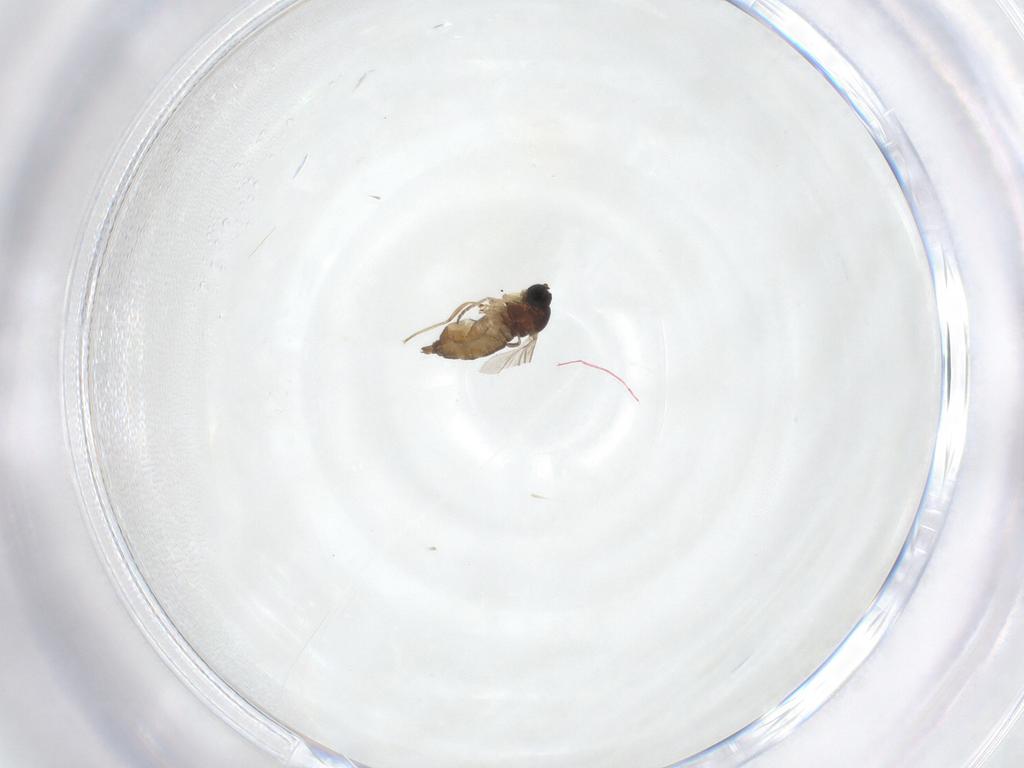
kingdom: Animalia
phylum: Arthropoda
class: Insecta
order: Diptera
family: Sciaridae
